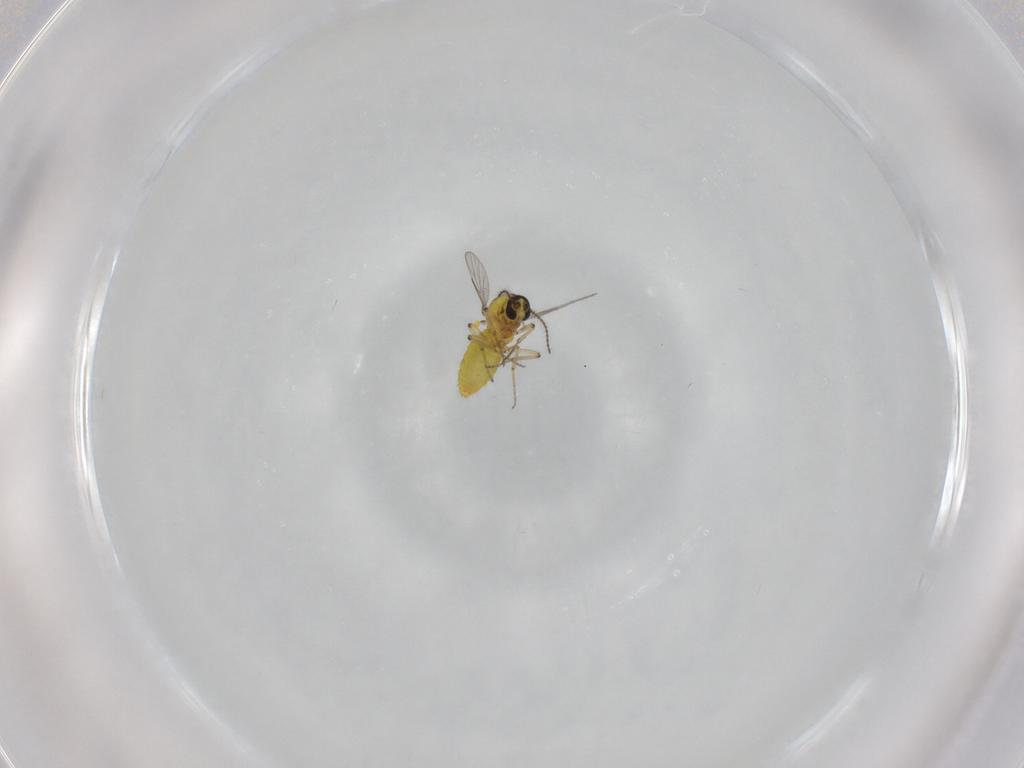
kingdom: Animalia
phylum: Arthropoda
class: Insecta
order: Diptera
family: Ceratopogonidae
